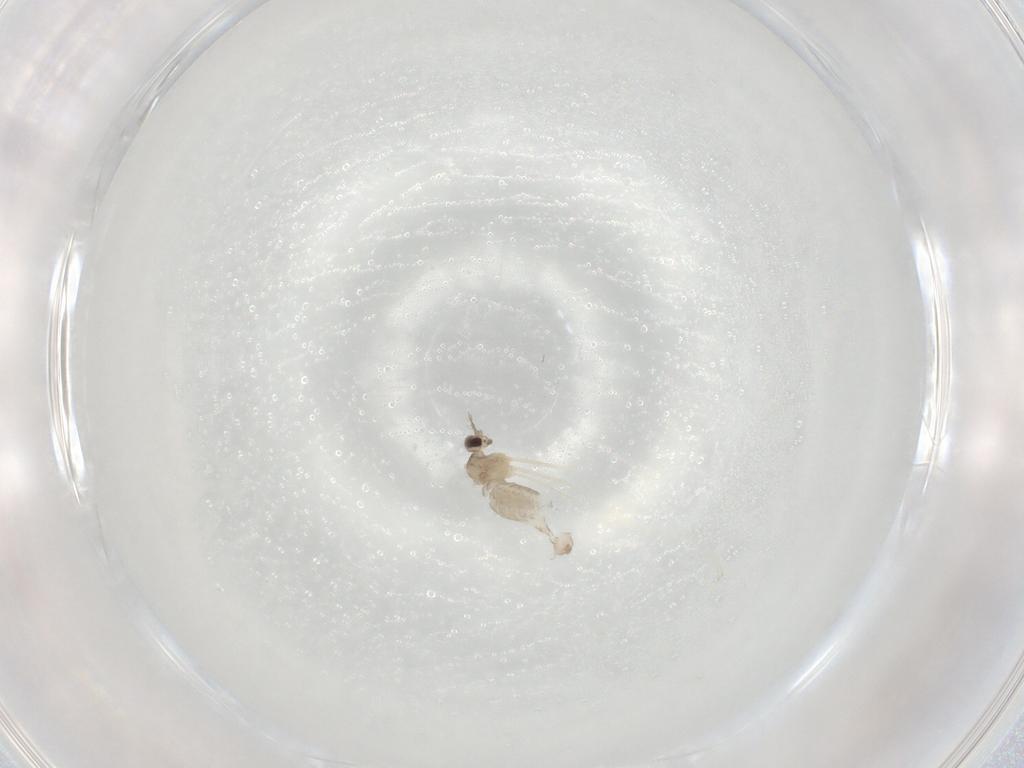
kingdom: Animalia
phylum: Arthropoda
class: Insecta
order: Diptera
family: Cecidomyiidae
